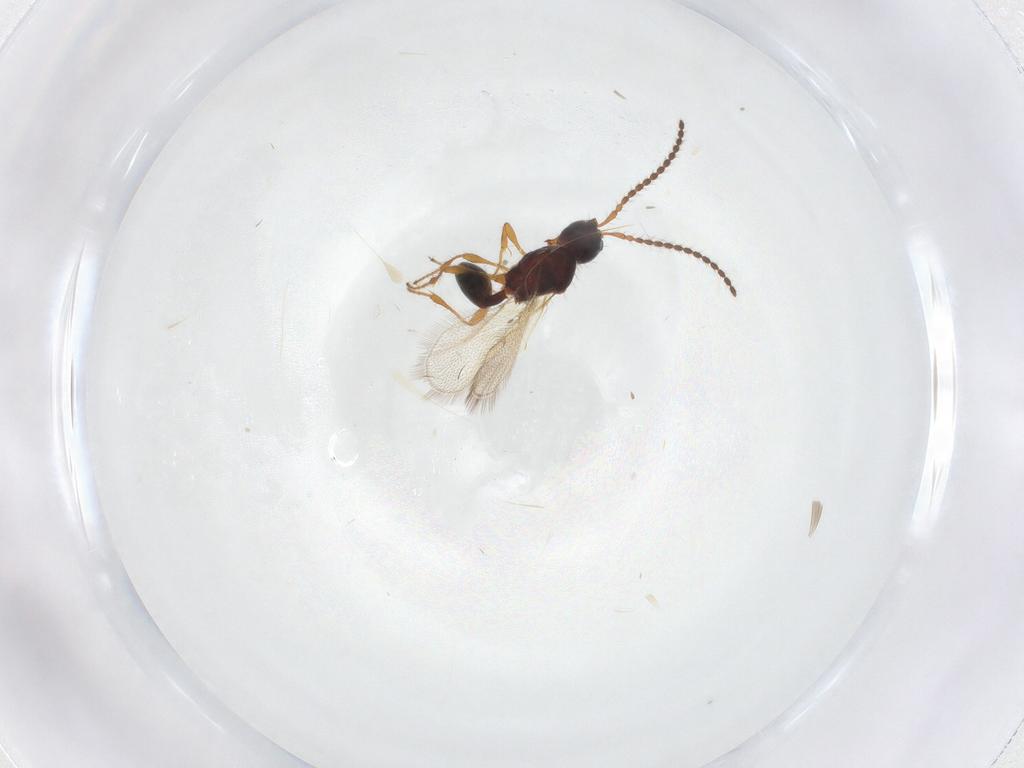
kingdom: Animalia
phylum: Arthropoda
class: Insecta
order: Hymenoptera
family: Diapriidae
